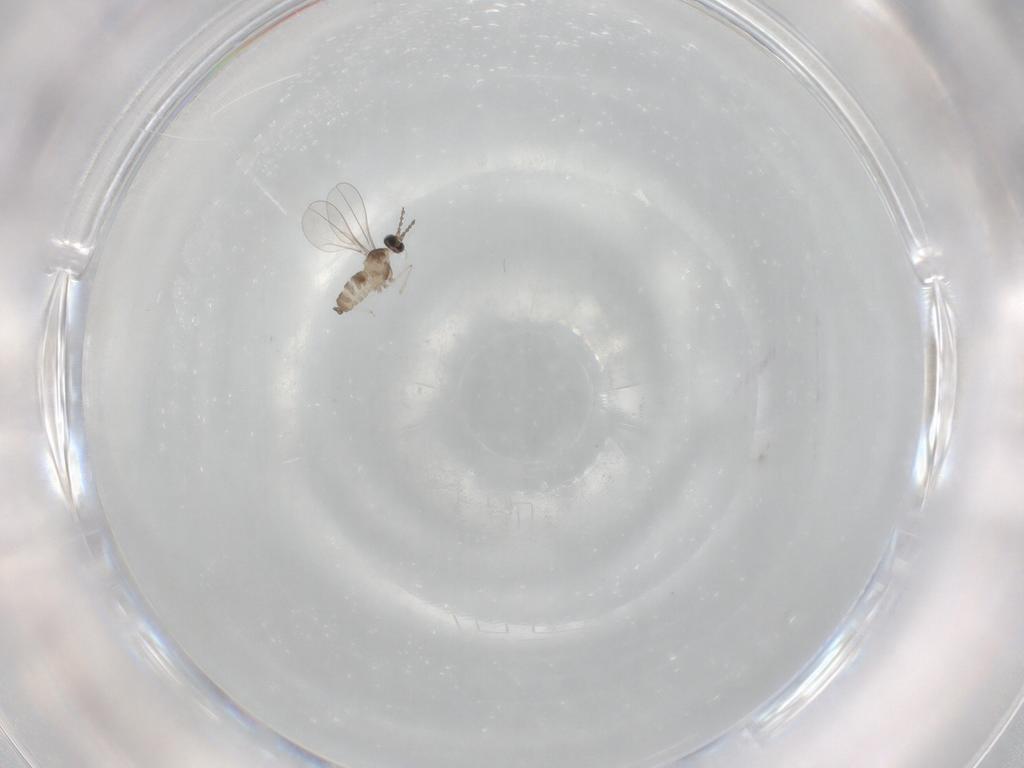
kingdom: Animalia
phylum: Arthropoda
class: Insecta
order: Diptera
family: Cecidomyiidae
